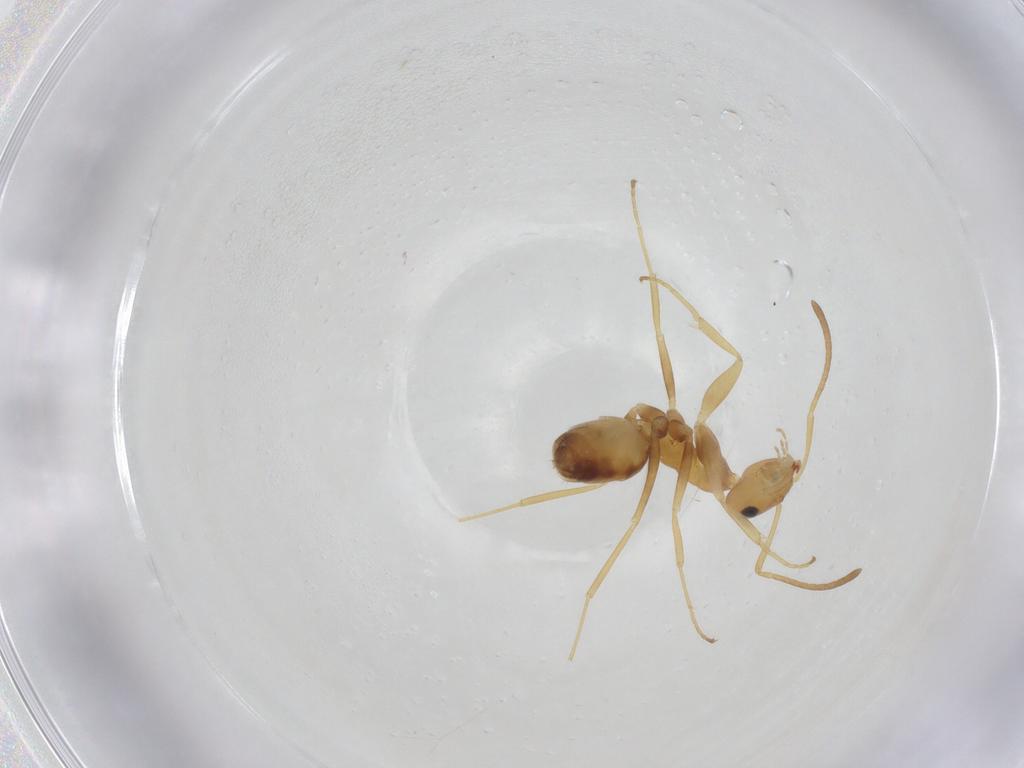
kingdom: Animalia
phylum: Arthropoda
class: Insecta
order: Hymenoptera
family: Formicidae
